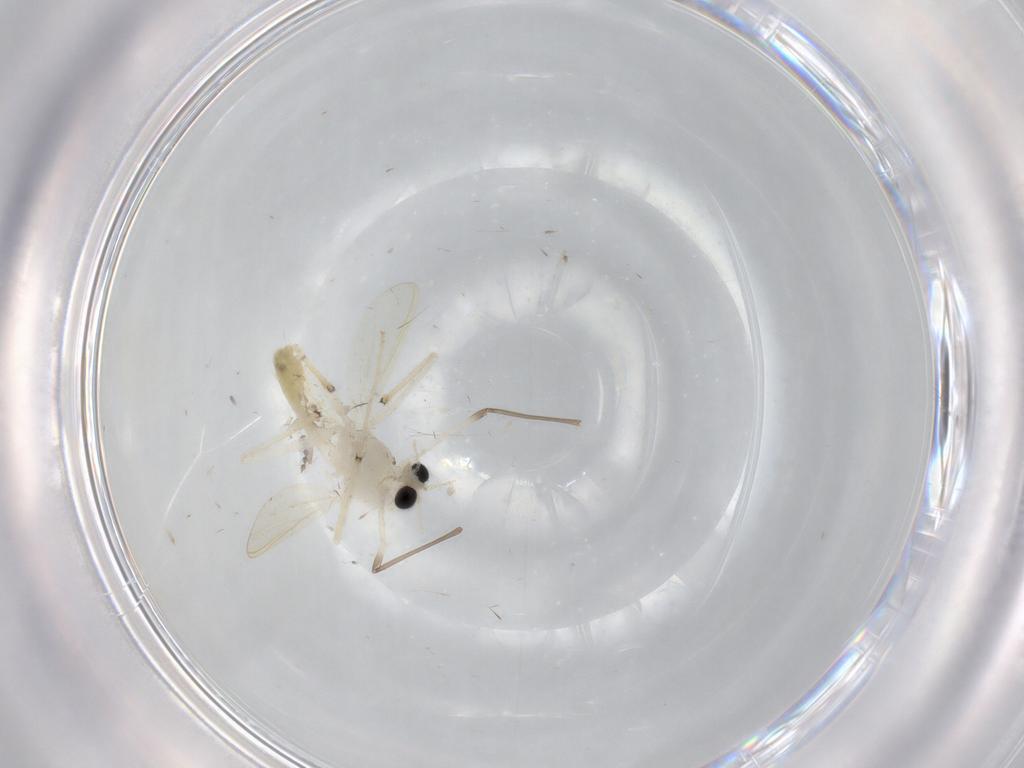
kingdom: Animalia
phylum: Arthropoda
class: Insecta
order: Diptera
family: Chironomidae
